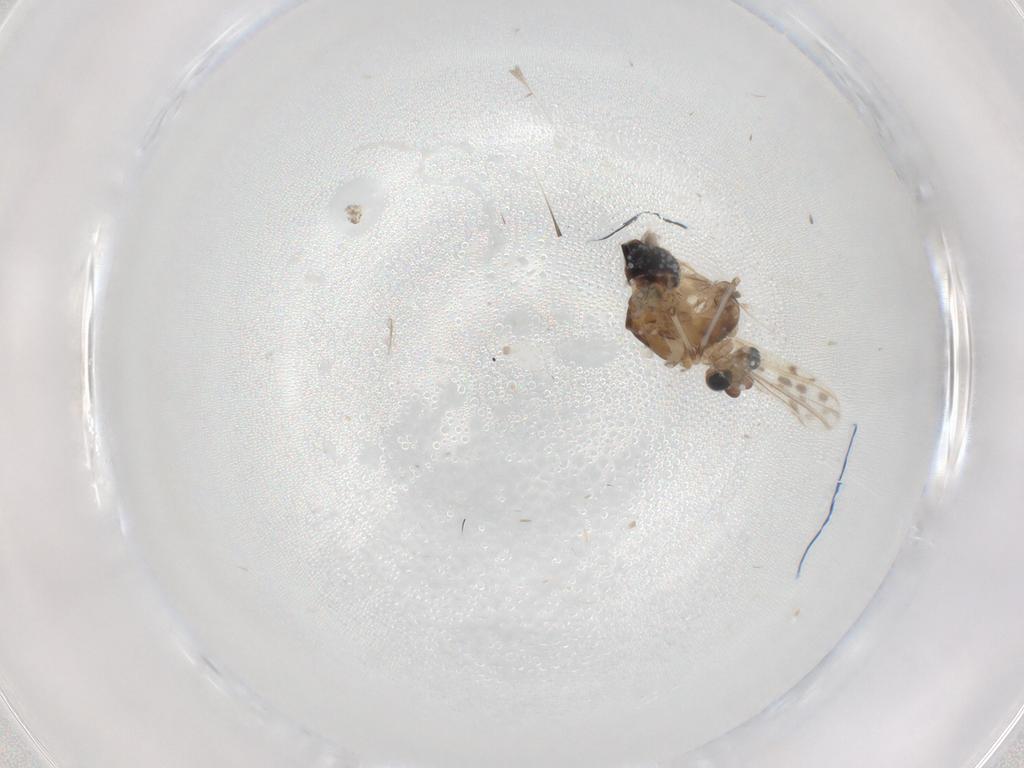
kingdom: Animalia
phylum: Arthropoda
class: Insecta
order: Diptera
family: Agromyzidae
